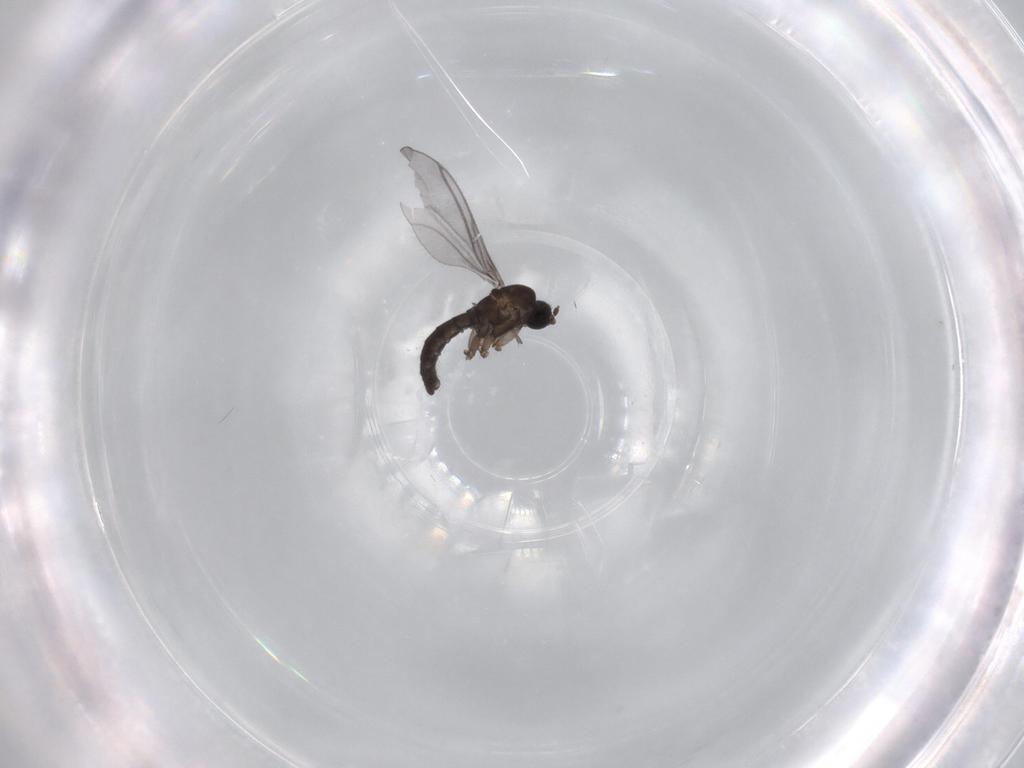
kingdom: Animalia
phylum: Arthropoda
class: Insecta
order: Diptera
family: Sciaridae
